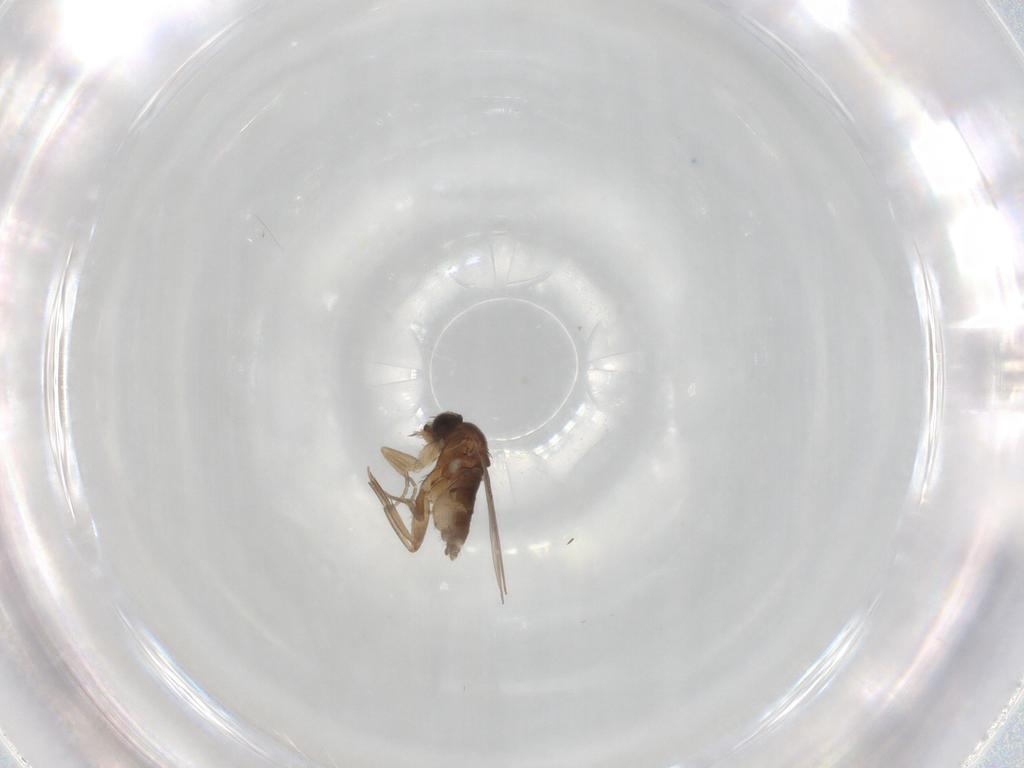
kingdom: Animalia
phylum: Arthropoda
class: Insecta
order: Diptera
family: Phoridae
